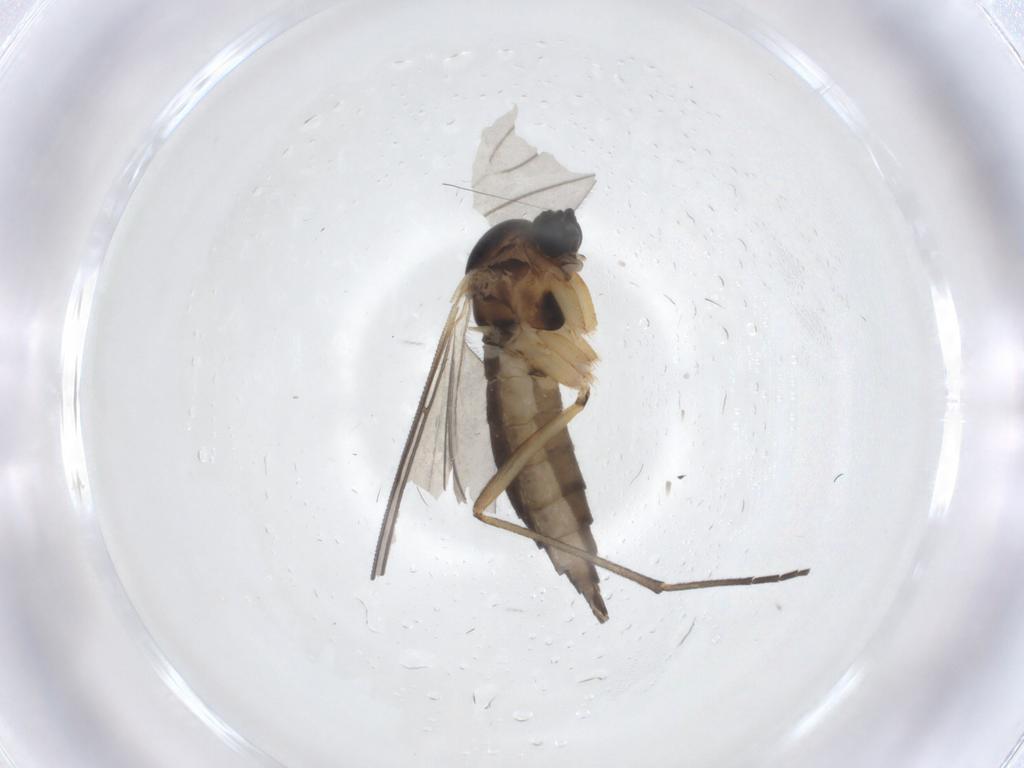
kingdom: Animalia
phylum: Arthropoda
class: Insecta
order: Diptera
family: Sciaridae
